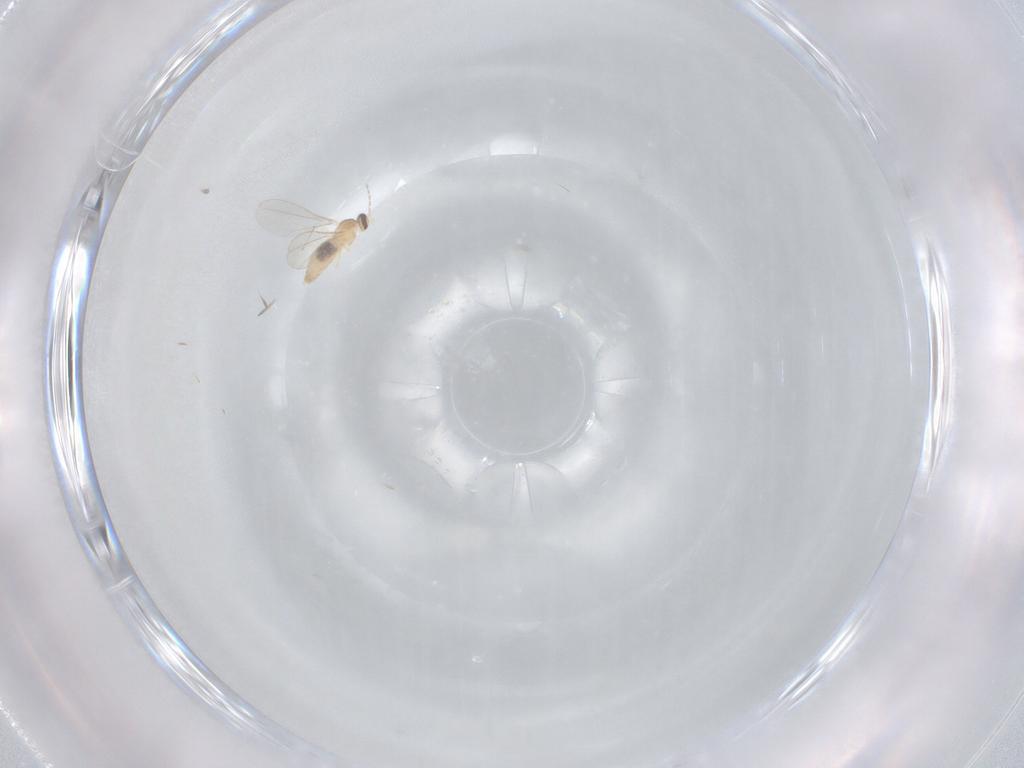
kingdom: Animalia
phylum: Arthropoda
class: Insecta
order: Diptera
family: Cecidomyiidae
